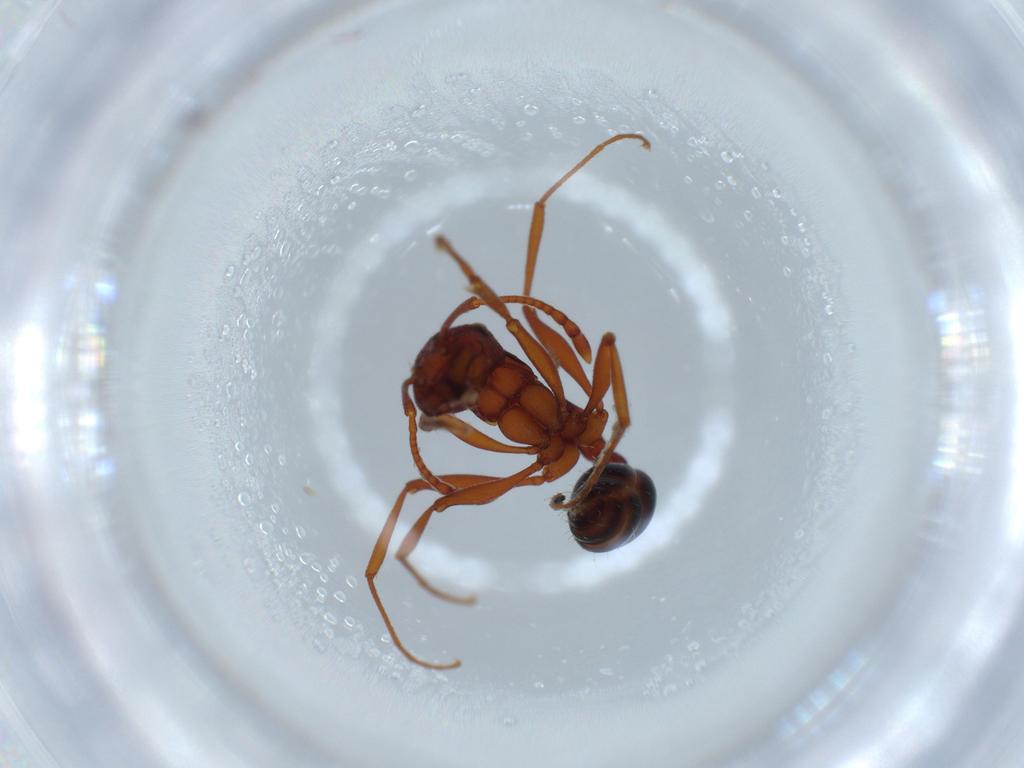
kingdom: Animalia
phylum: Arthropoda
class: Insecta
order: Hymenoptera
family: Formicidae
